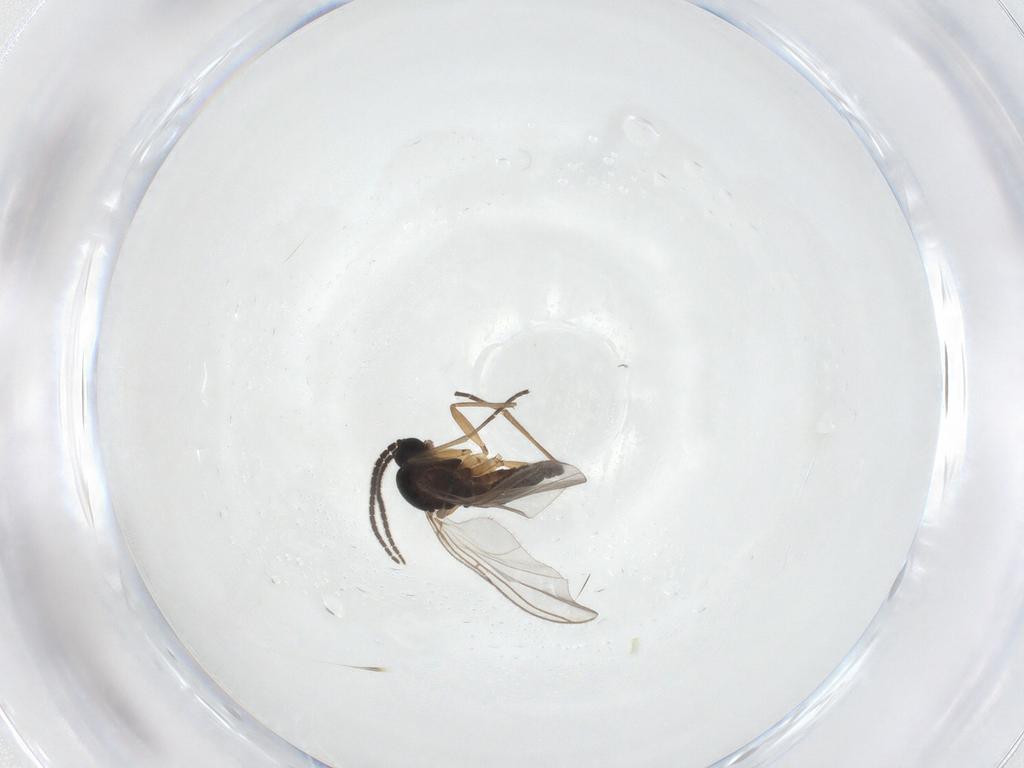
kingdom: Animalia
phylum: Arthropoda
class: Insecta
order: Diptera
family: Sciaridae
